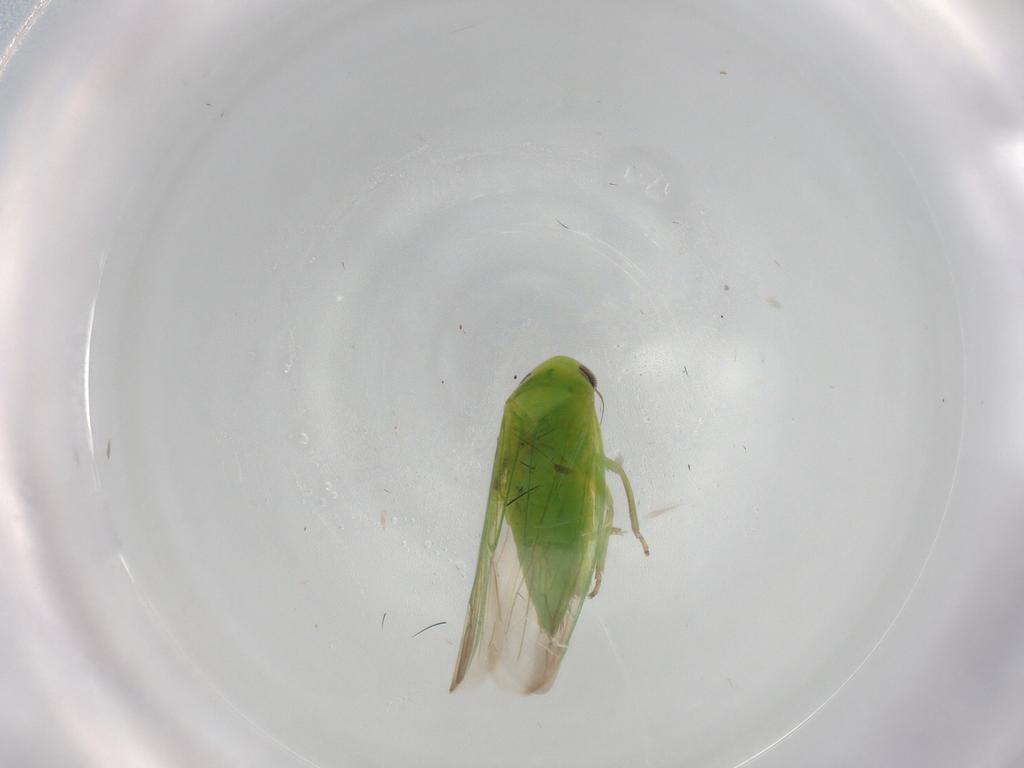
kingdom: Animalia
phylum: Arthropoda
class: Insecta
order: Hemiptera
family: Cicadellidae
